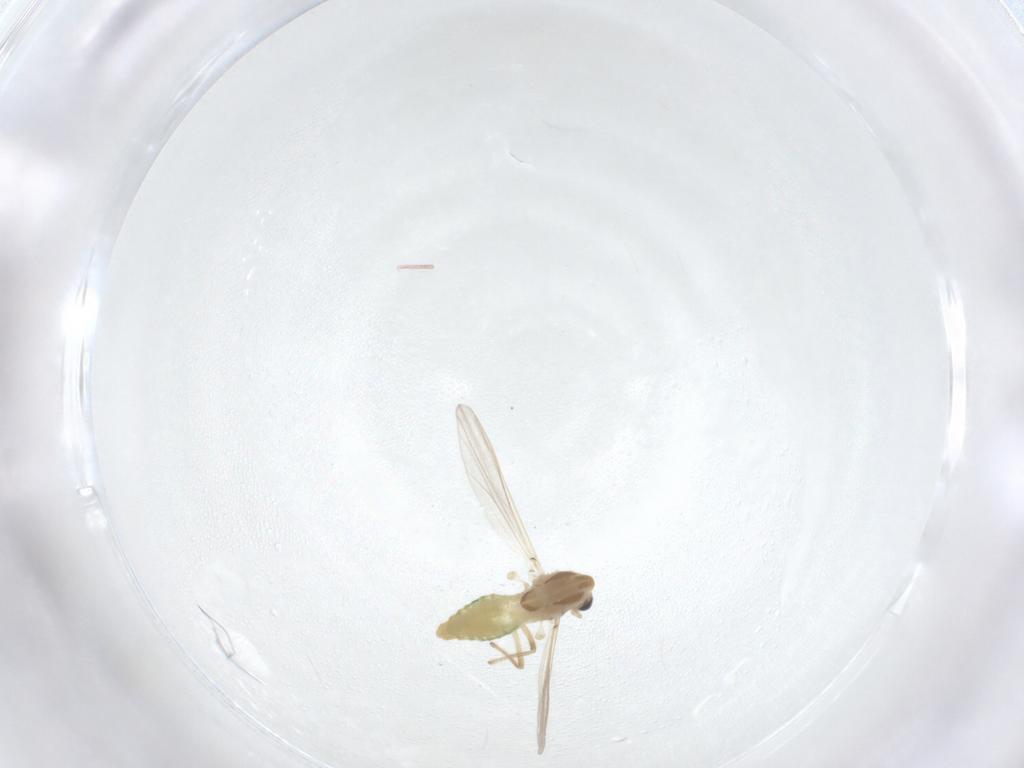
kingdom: Animalia
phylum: Arthropoda
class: Insecta
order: Diptera
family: Chironomidae
